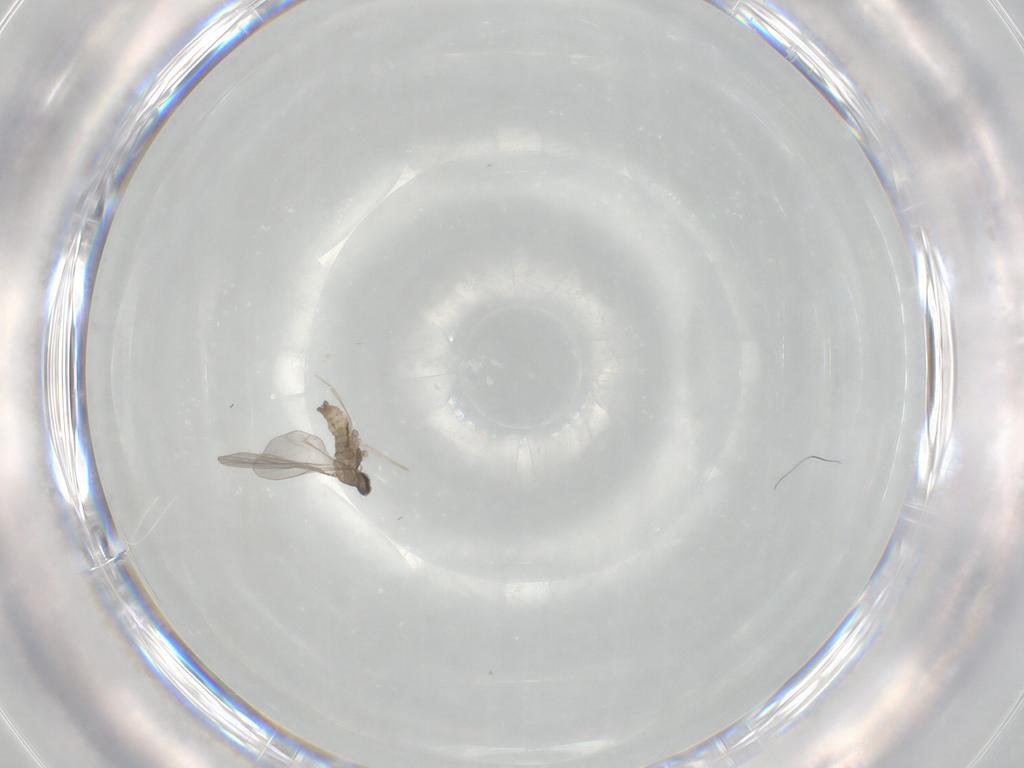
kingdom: Animalia
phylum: Arthropoda
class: Insecta
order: Diptera
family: Cecidomyiidae
